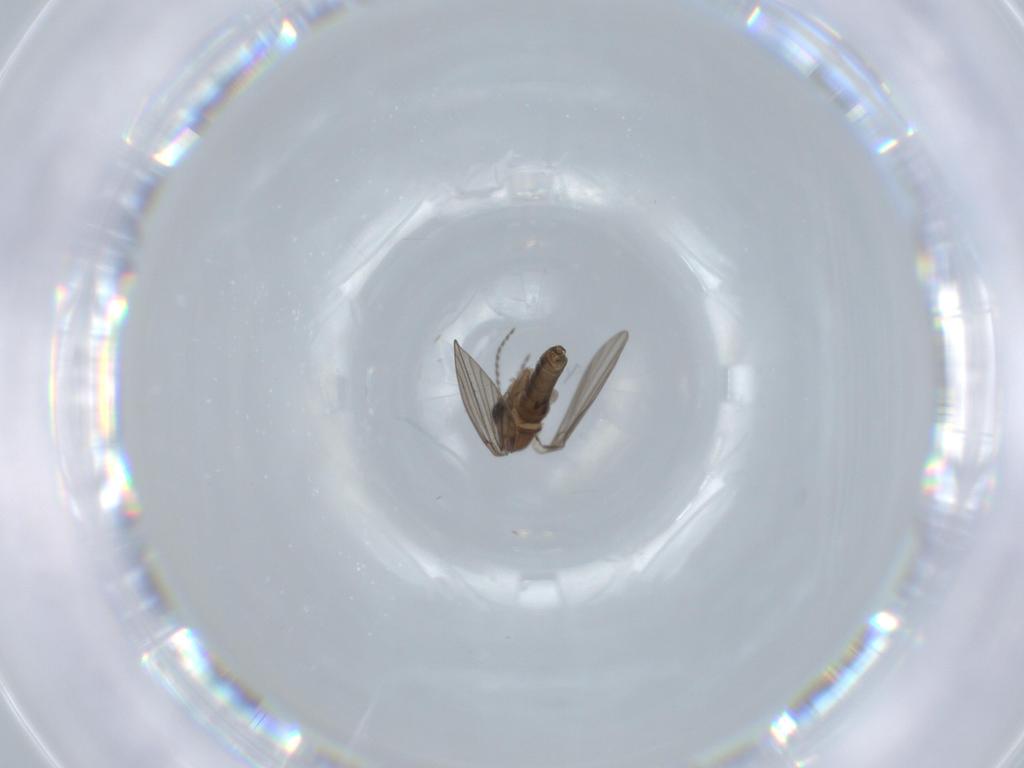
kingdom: Animalia
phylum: Arthropoda
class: Insecta
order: Diptera
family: Psychodidae
